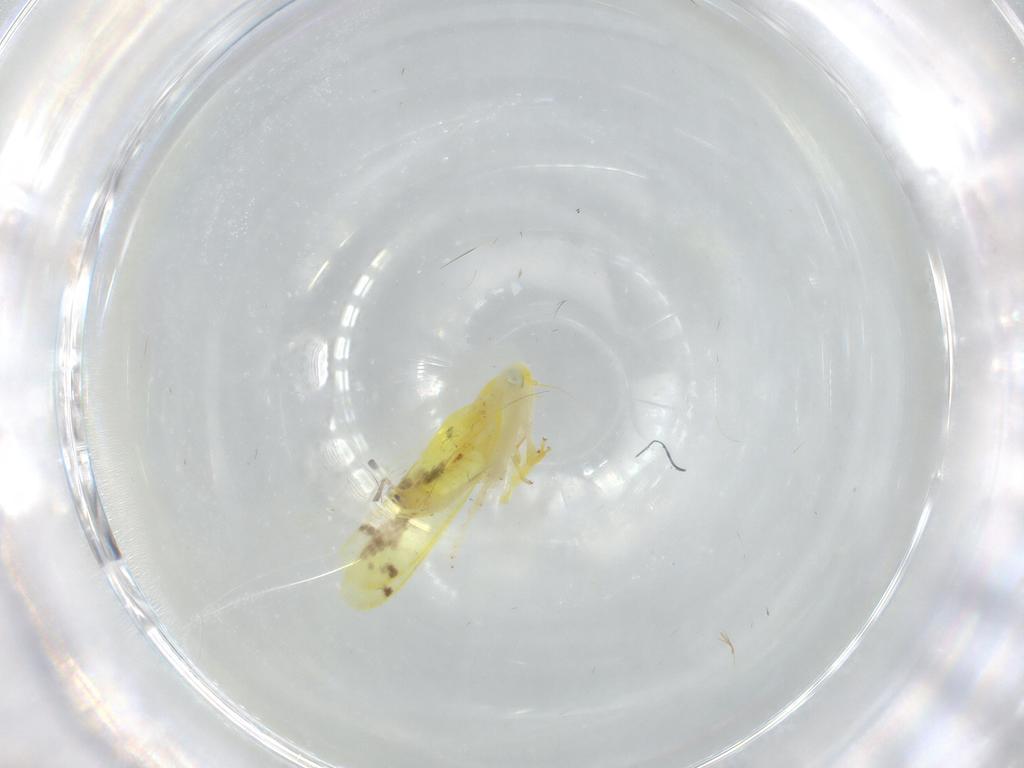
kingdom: Animalia
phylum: Arthropoda
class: Insecta
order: Hemiptera
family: Cicadellidae
